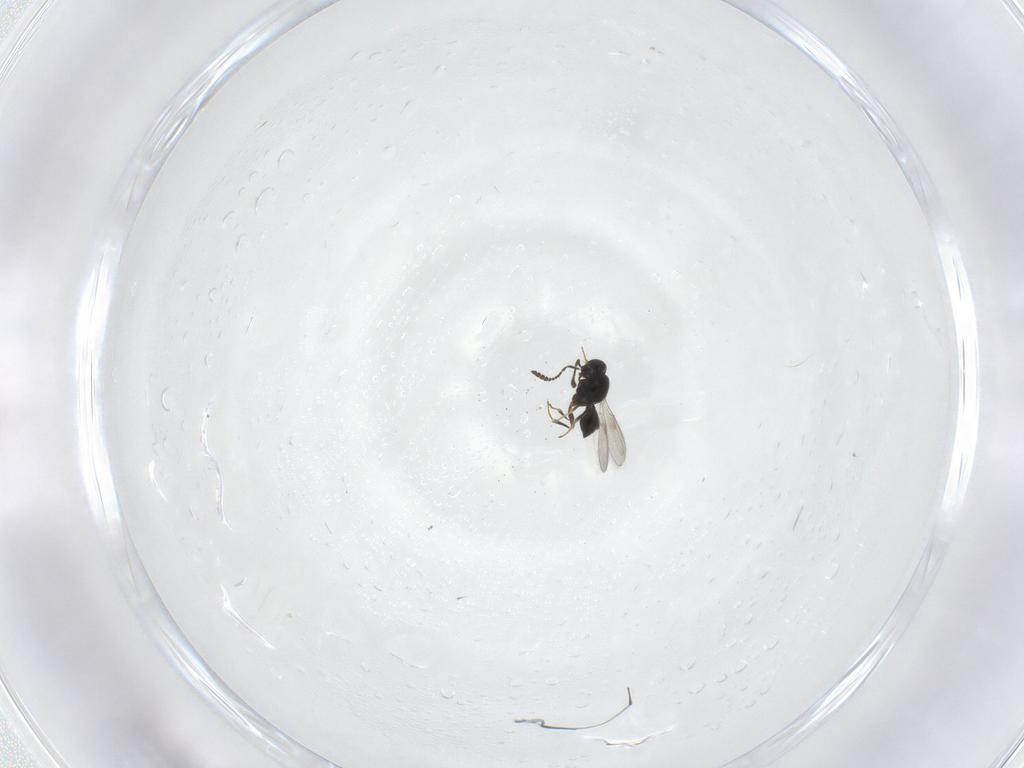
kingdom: Animalia
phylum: Arthropoda
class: Insecta
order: Hymenoptera
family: Scelionidae
